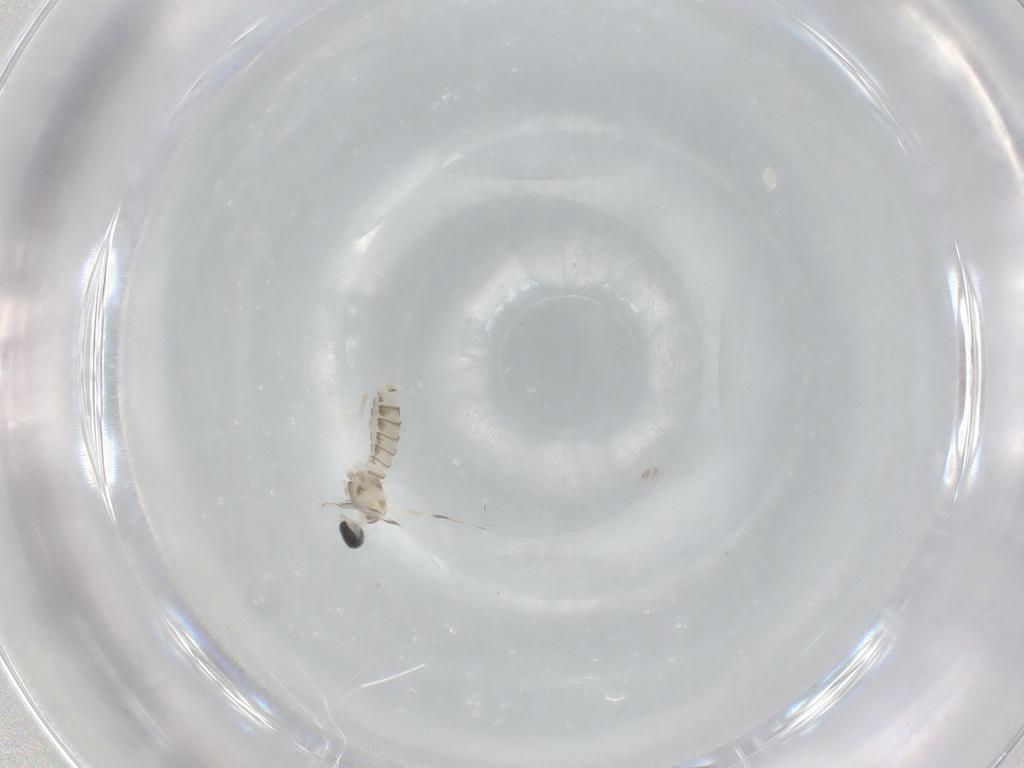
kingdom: Animalia
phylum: Arthropoda
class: Insecta
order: Diptera
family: Cecidomyiidae
